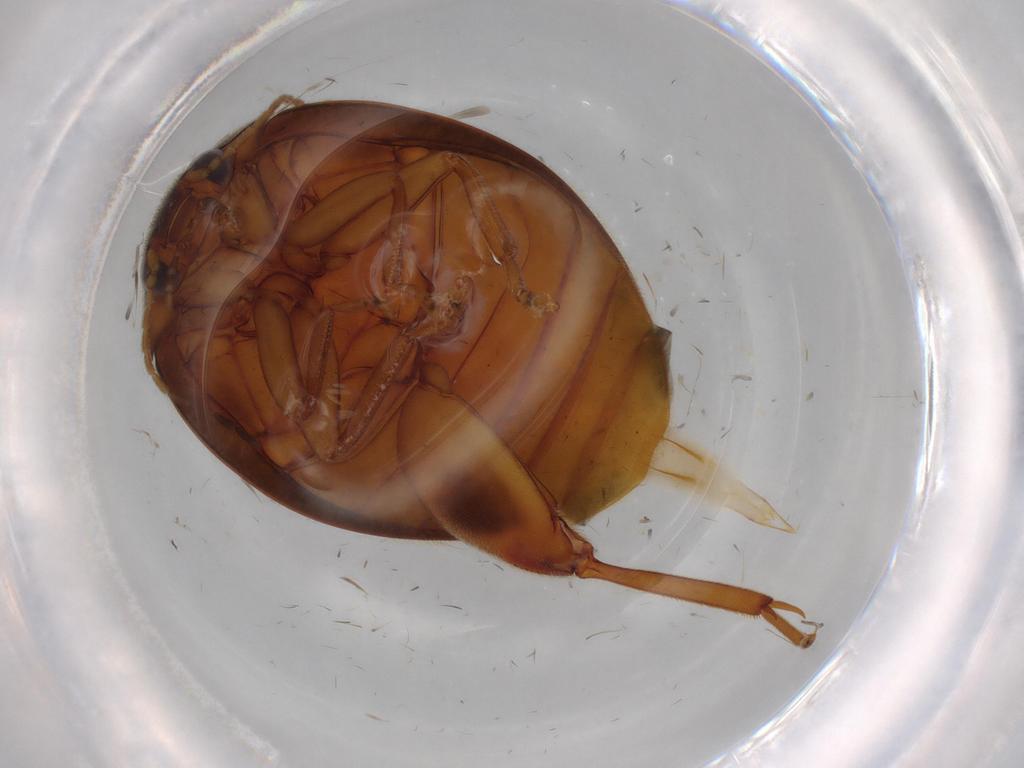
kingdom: Animalia
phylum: Arthropoda
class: Insecta
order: Coleoptera
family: Scirtidae
